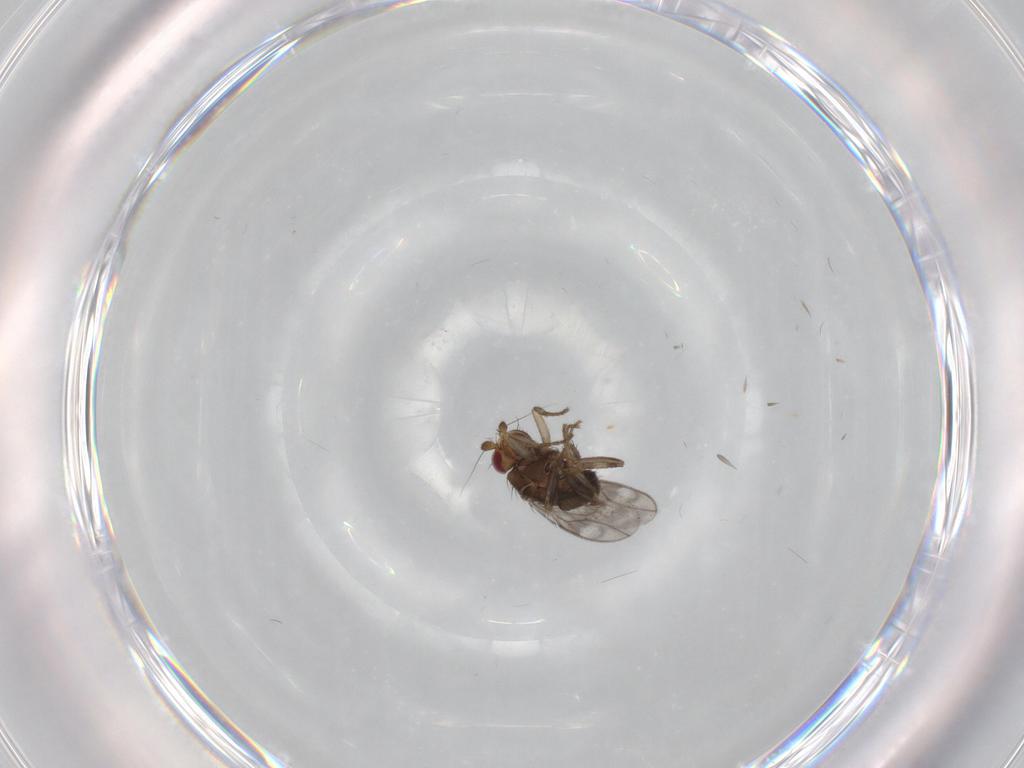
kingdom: Animalia
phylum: Arthropoda
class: Insecta
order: Diptera
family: Sphaeroceridae
